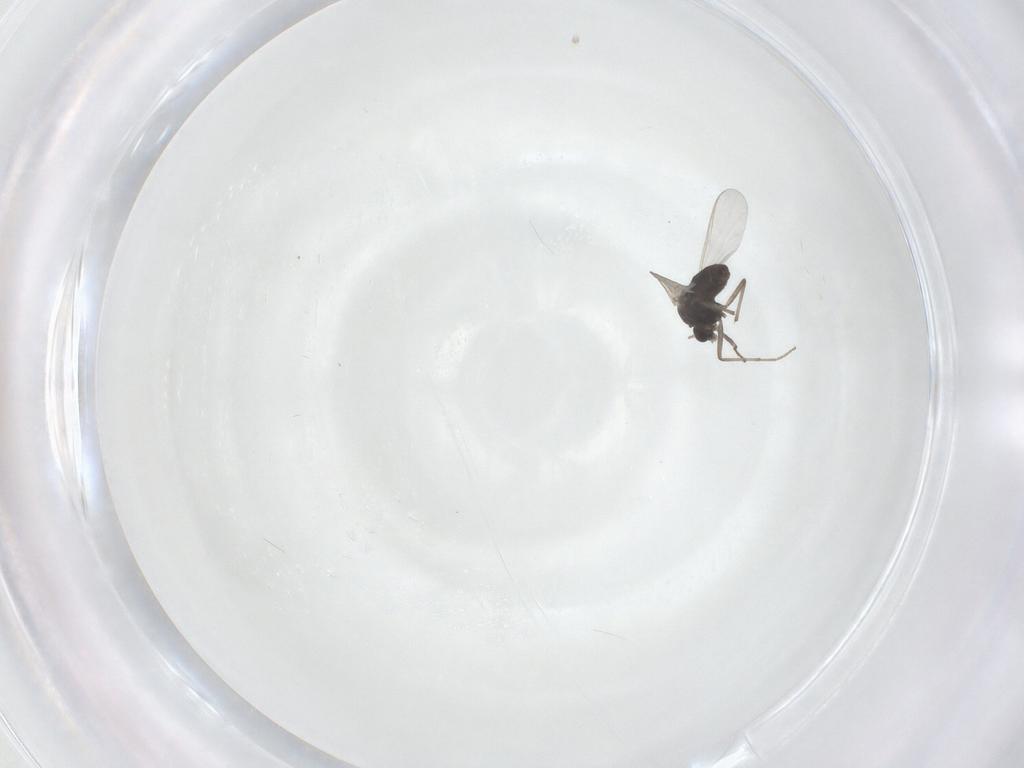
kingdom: Animalia
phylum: Arthropoda
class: Insecta
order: Diptera
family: Chironomidae
